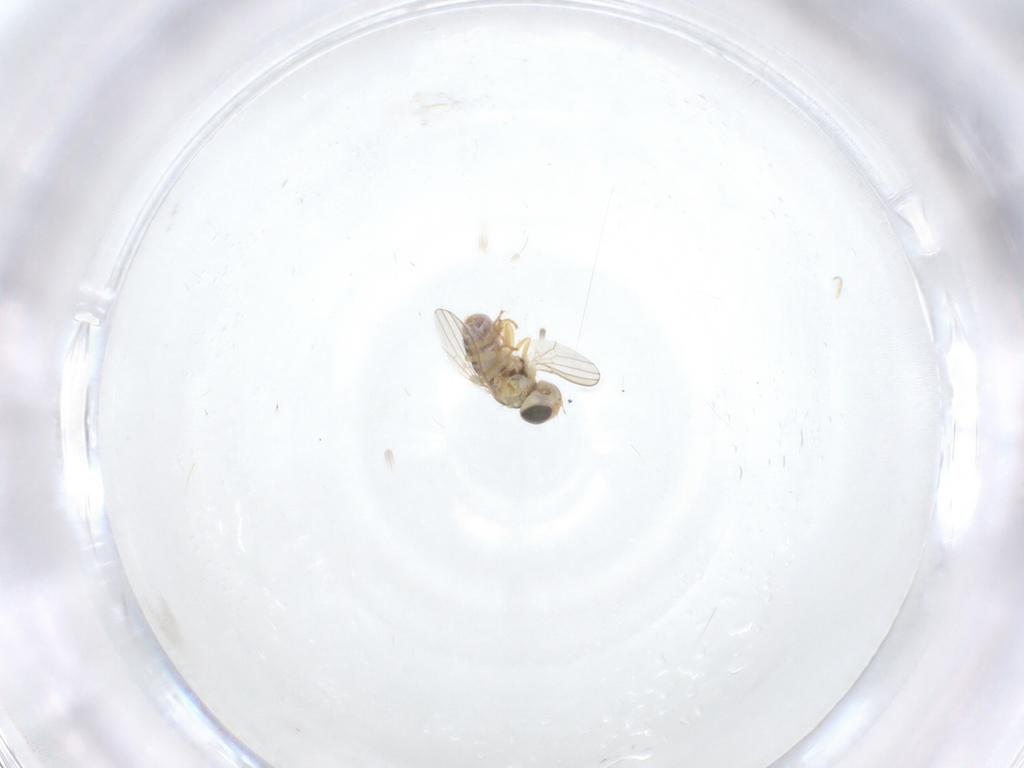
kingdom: Animalia
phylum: Arthropoda
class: Insecta
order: Diptera
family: Chyromyidae
